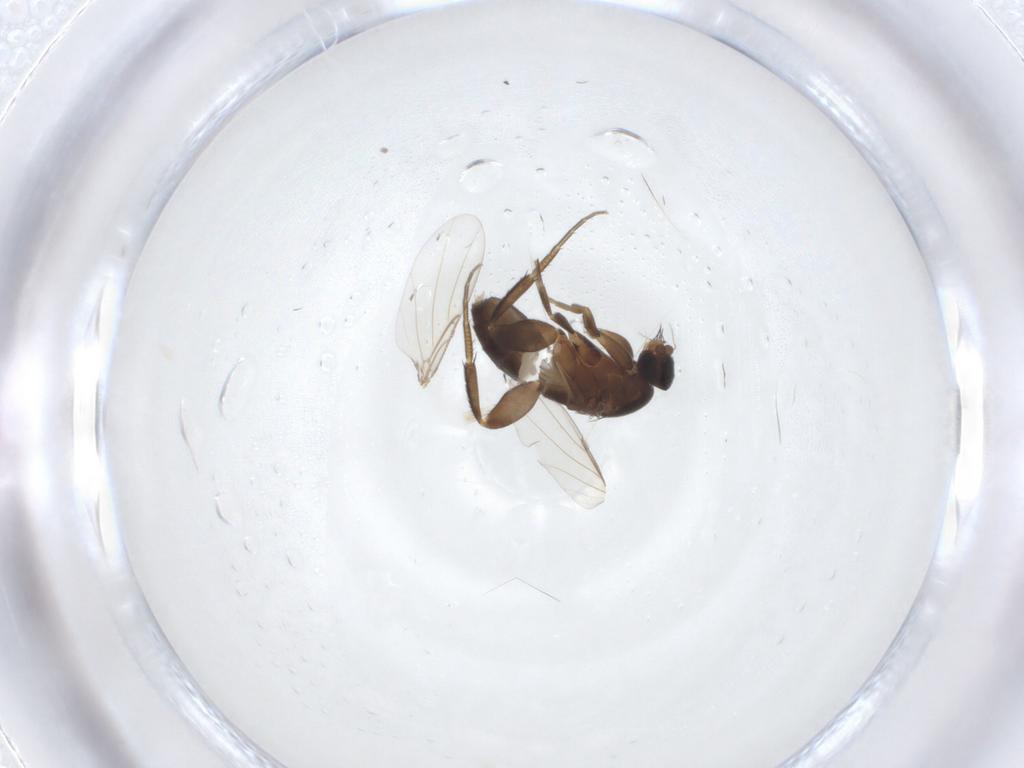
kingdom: Animalia
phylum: Arthropoda
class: Insecta
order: Diptera
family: Phoridae
